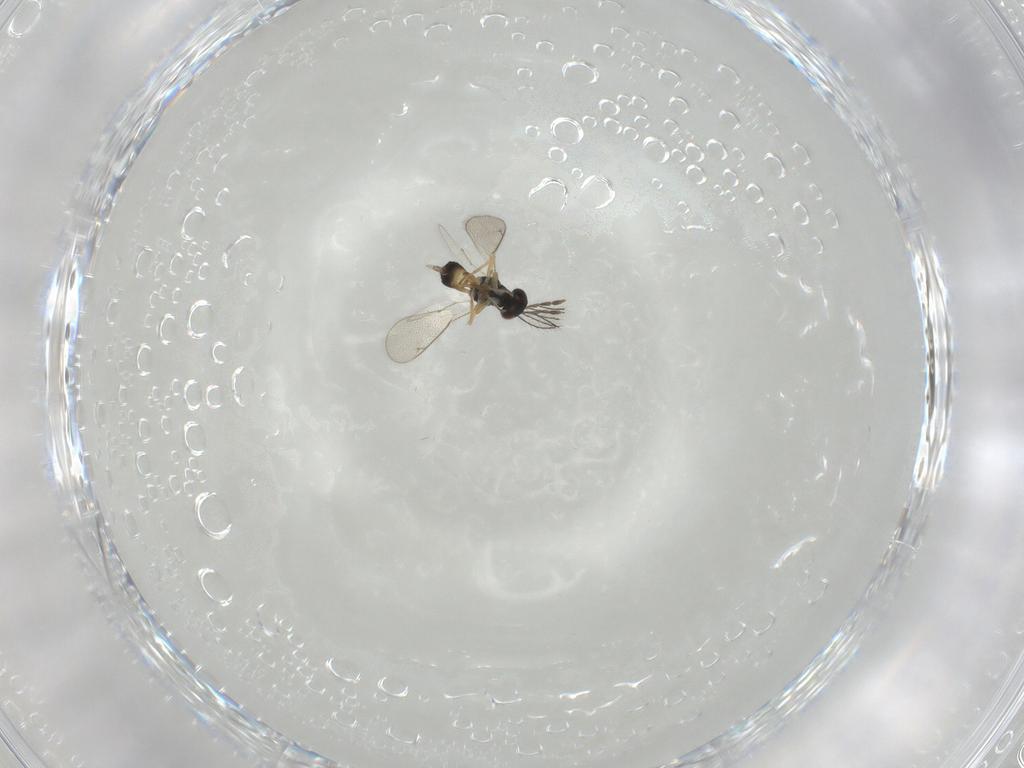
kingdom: Animalia
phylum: Arthropoda
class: Insecta
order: Hymenoptera
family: Eulophidae
